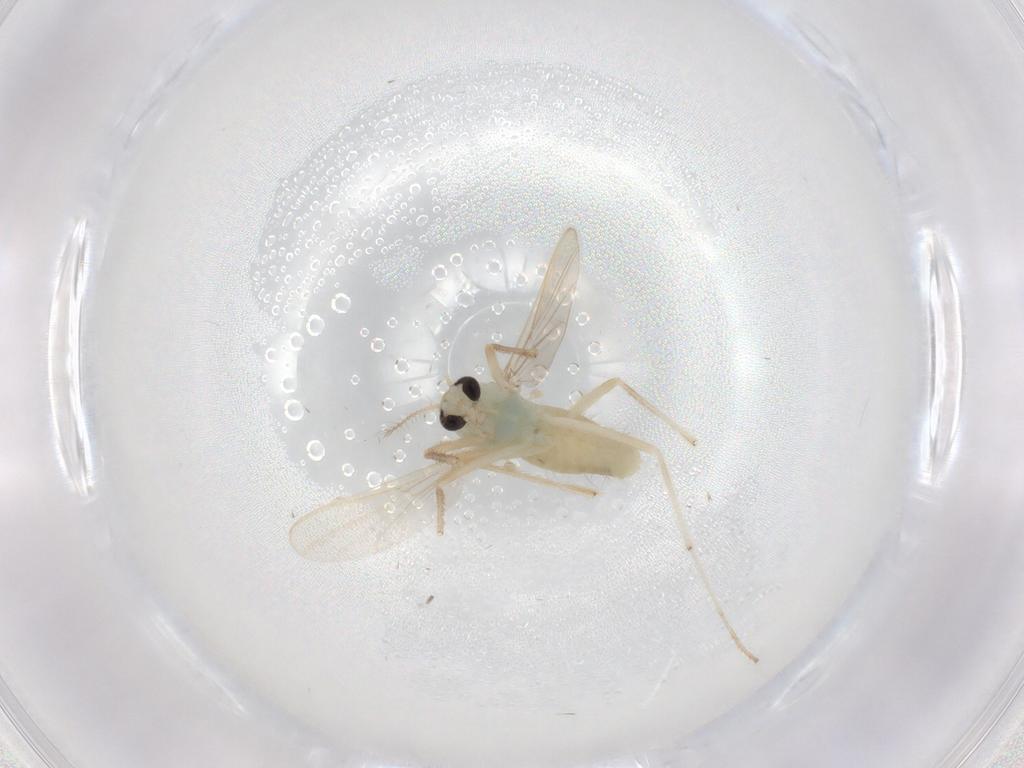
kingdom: Animalia
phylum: Arthropoda
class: Insecta
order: Diptera
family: Chironomidae
